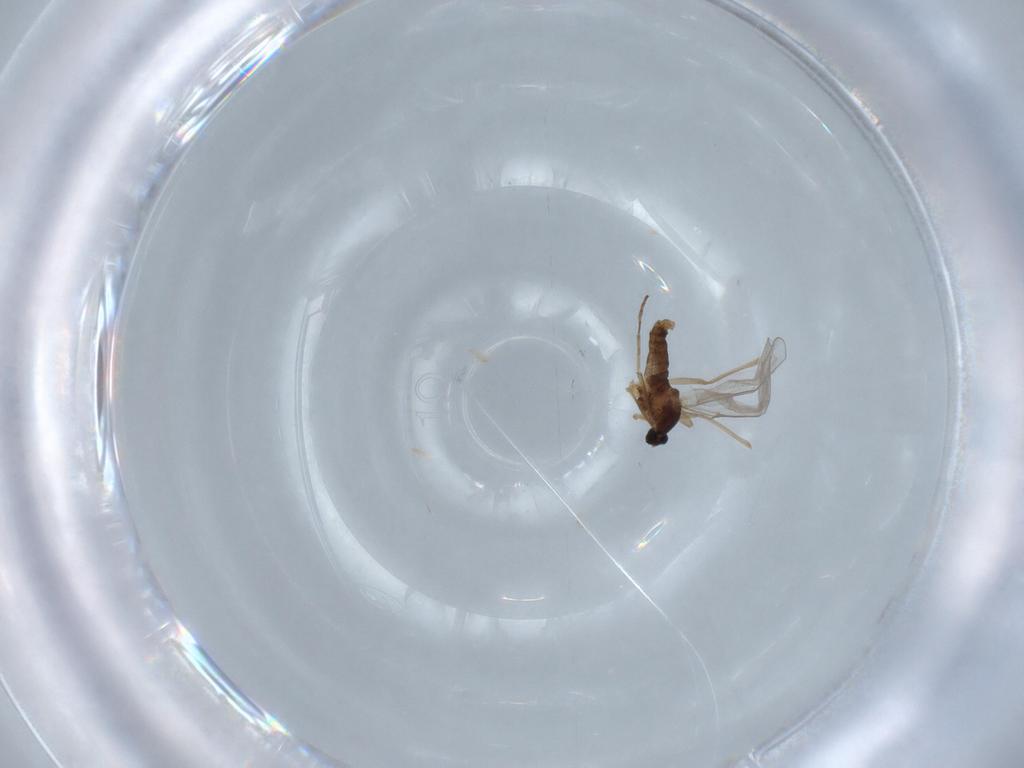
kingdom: Animalia
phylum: Arthropoda
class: Insecta
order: Diptera
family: Cecidomyiidae
